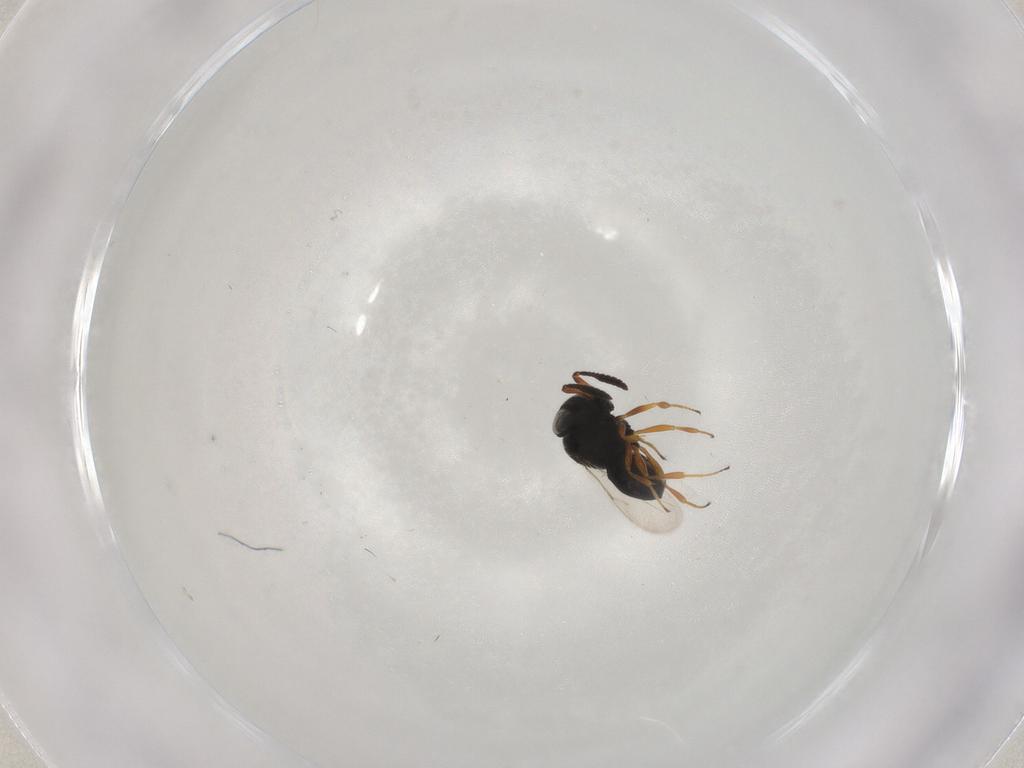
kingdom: Animalia
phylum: Arthropoda
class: Insecta
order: Hymenoptera
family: Scelionidae
